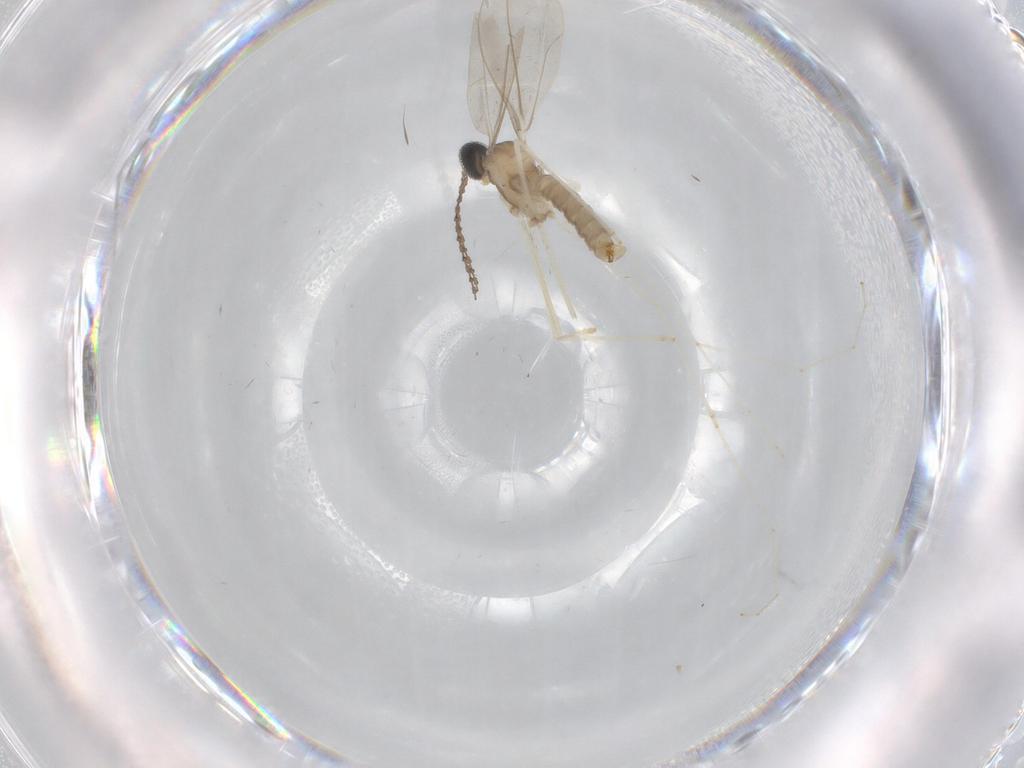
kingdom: Animalia
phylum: Arthropoda
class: Insecta
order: Diptera
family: Cecidomyiidae
